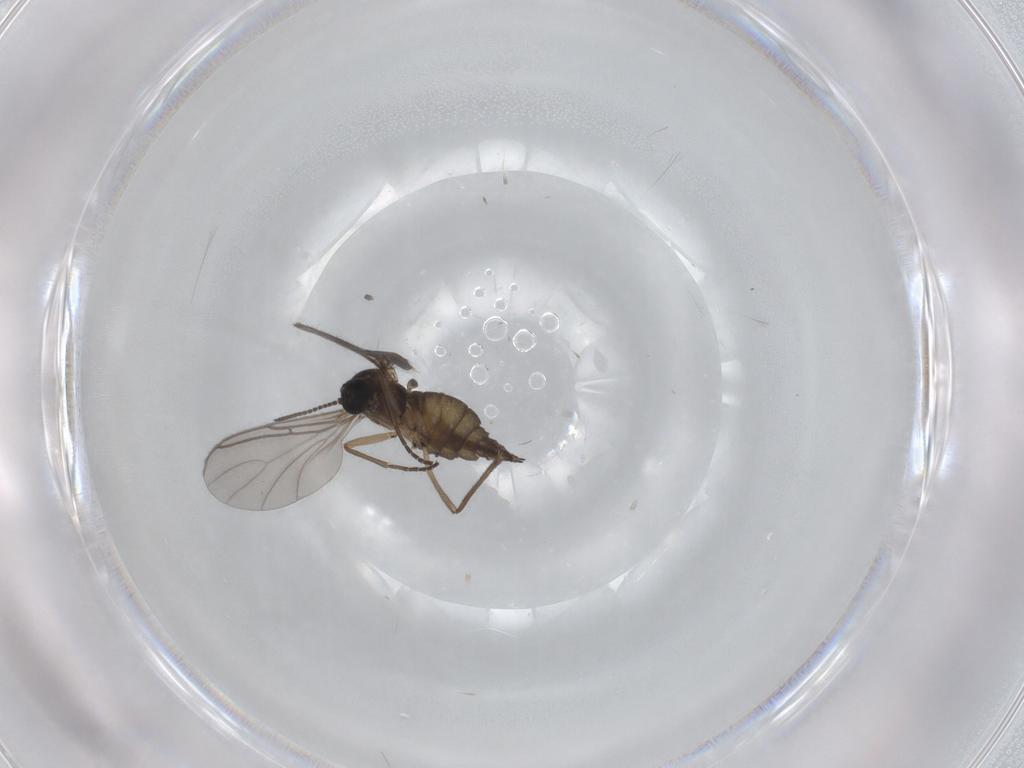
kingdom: Animalia
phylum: Arthropoda
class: Insecta
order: Diptera
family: Sciaridae
